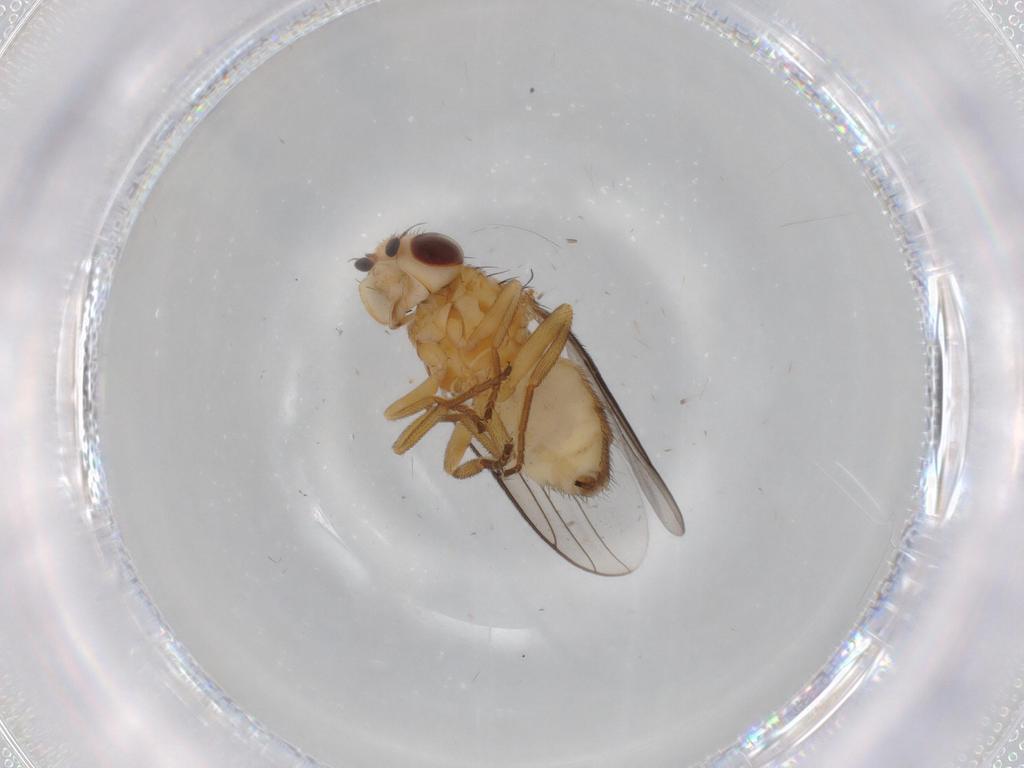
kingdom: Animalia
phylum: Arthropoda
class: Insecta
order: Diptera
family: Chloropidae
